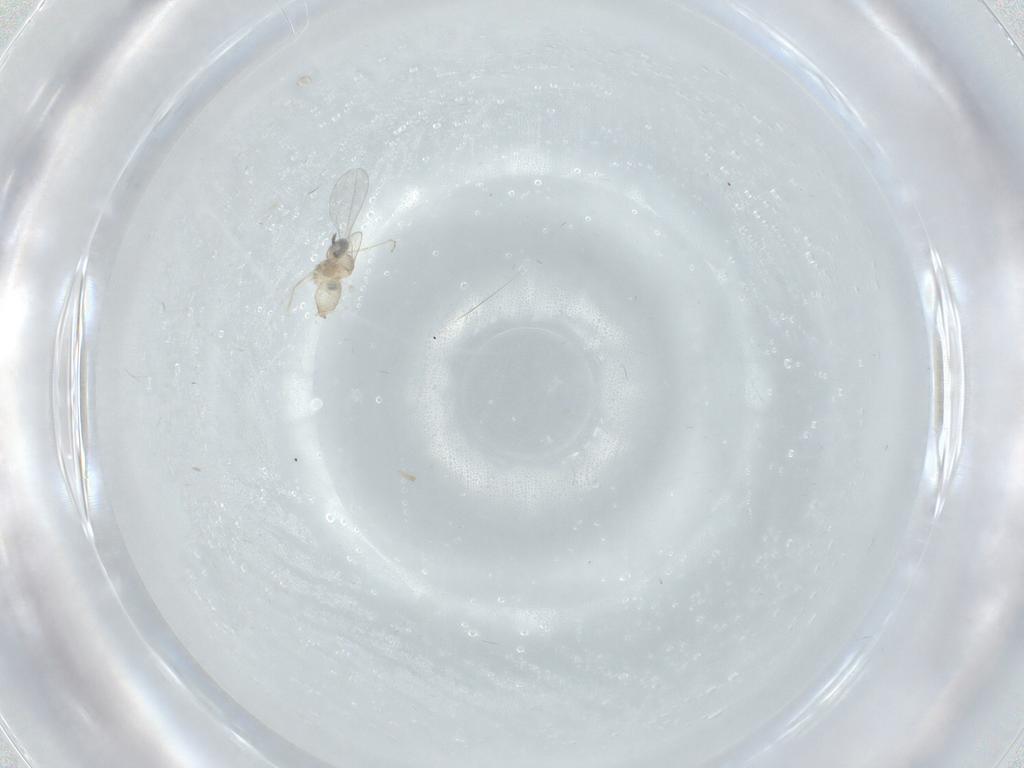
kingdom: Animalia
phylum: Arthropoda
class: Insecta
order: Diptera
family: Cecidomyiidae
